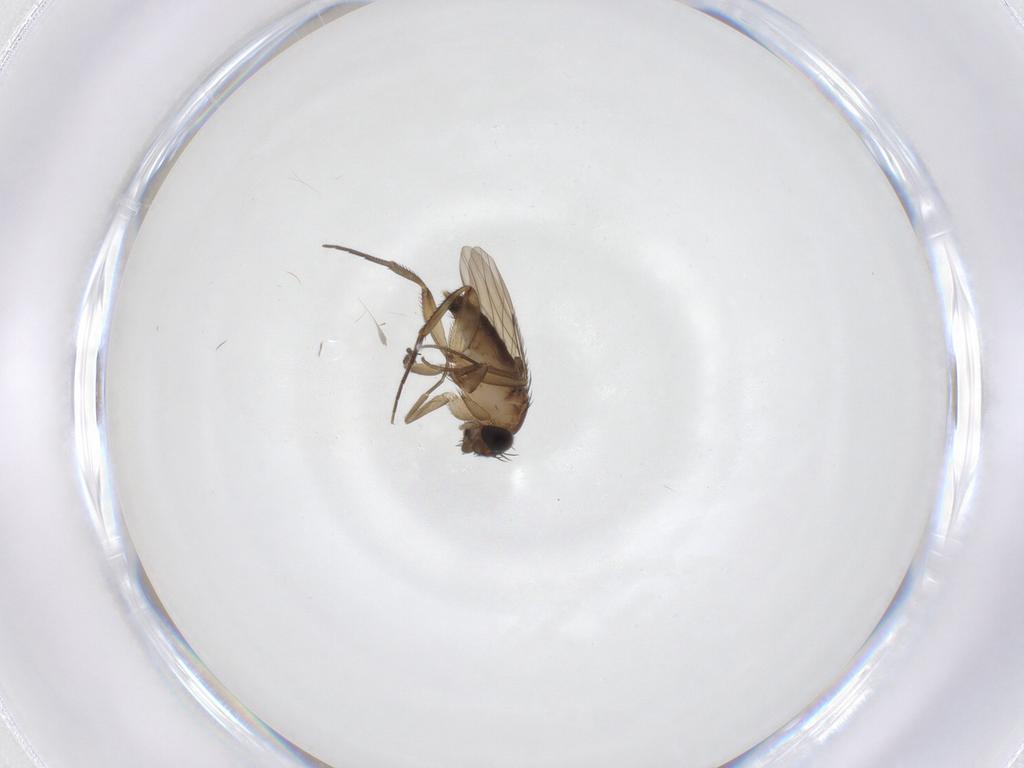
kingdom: Animalia
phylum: Arthropoda
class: Insecta
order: Diptera
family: Phoridae
